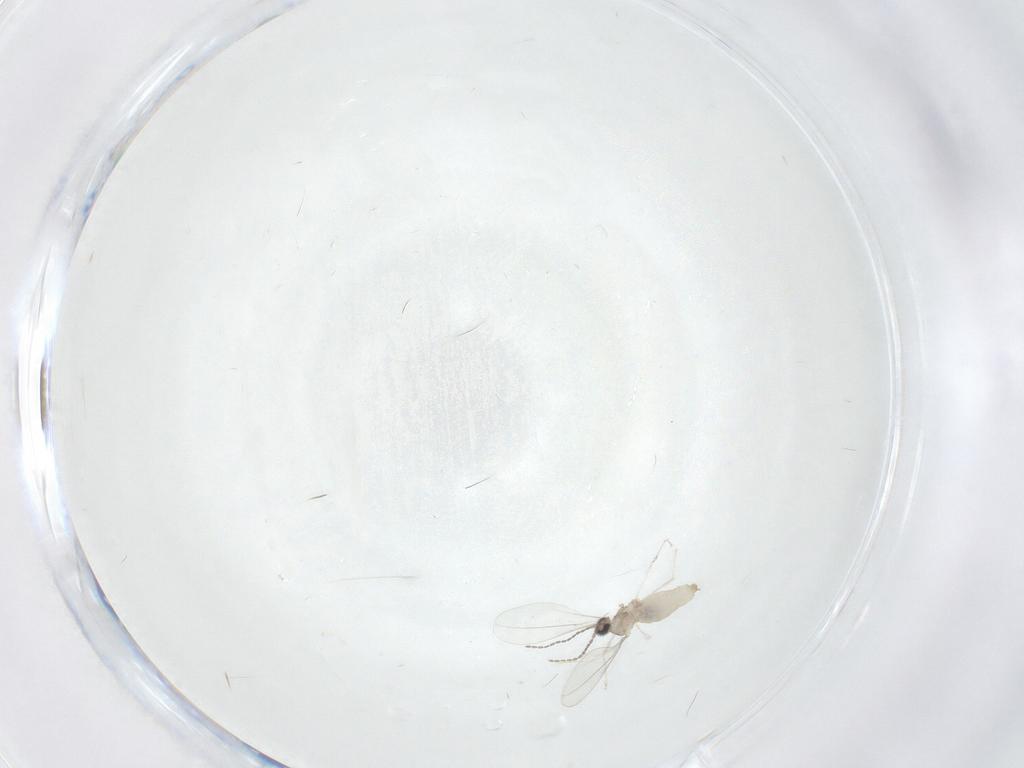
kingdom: Animalia
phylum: Arthropoda
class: Insecta
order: Diptera
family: Cecidomyiidae
